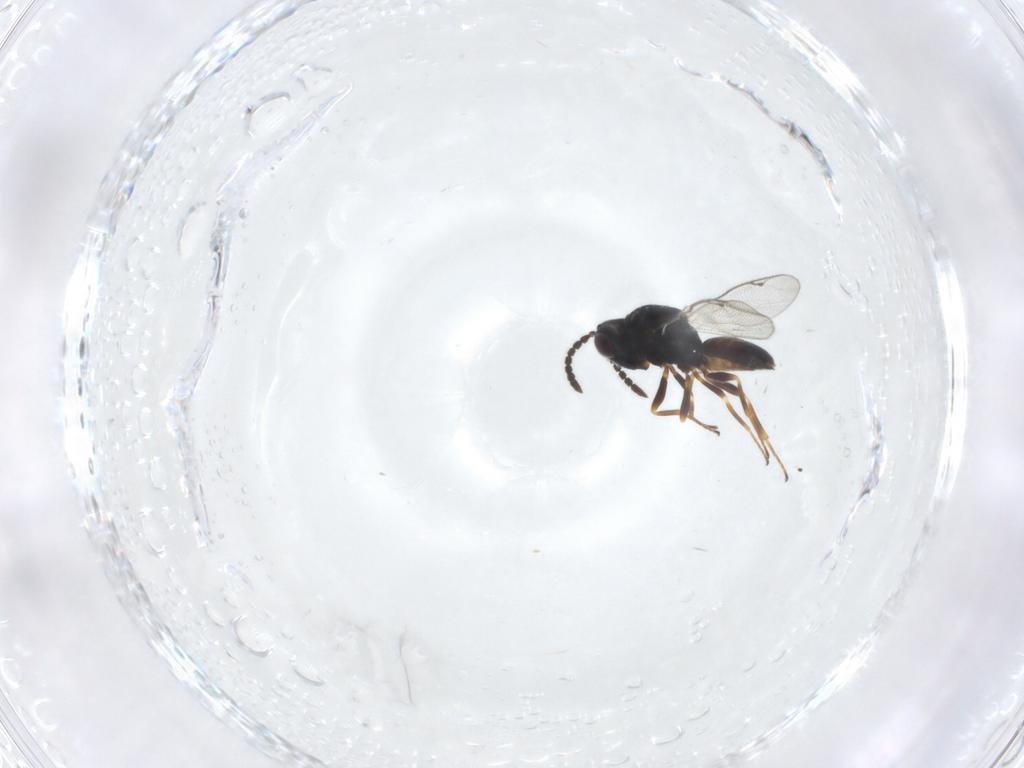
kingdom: Animalia
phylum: Arthropoda
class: Insecta
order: Hymenoptera
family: Pteromalidae
